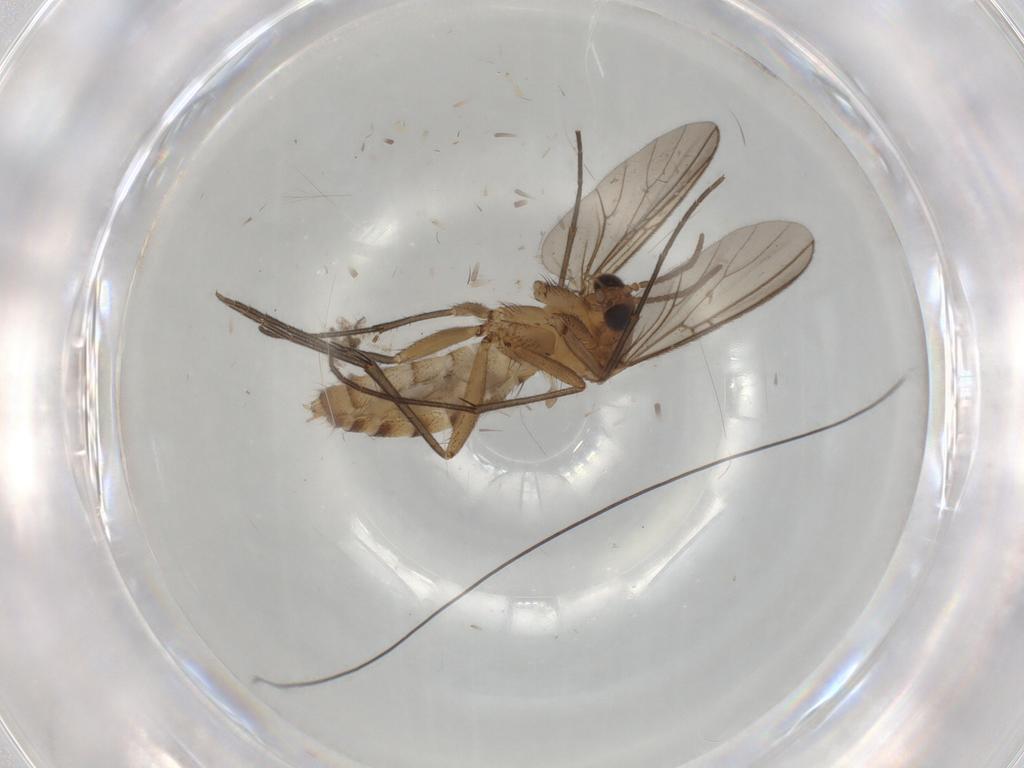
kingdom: Animalia
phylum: Arthropoda
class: Insecta
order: Diptera
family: Mycetophilidae
